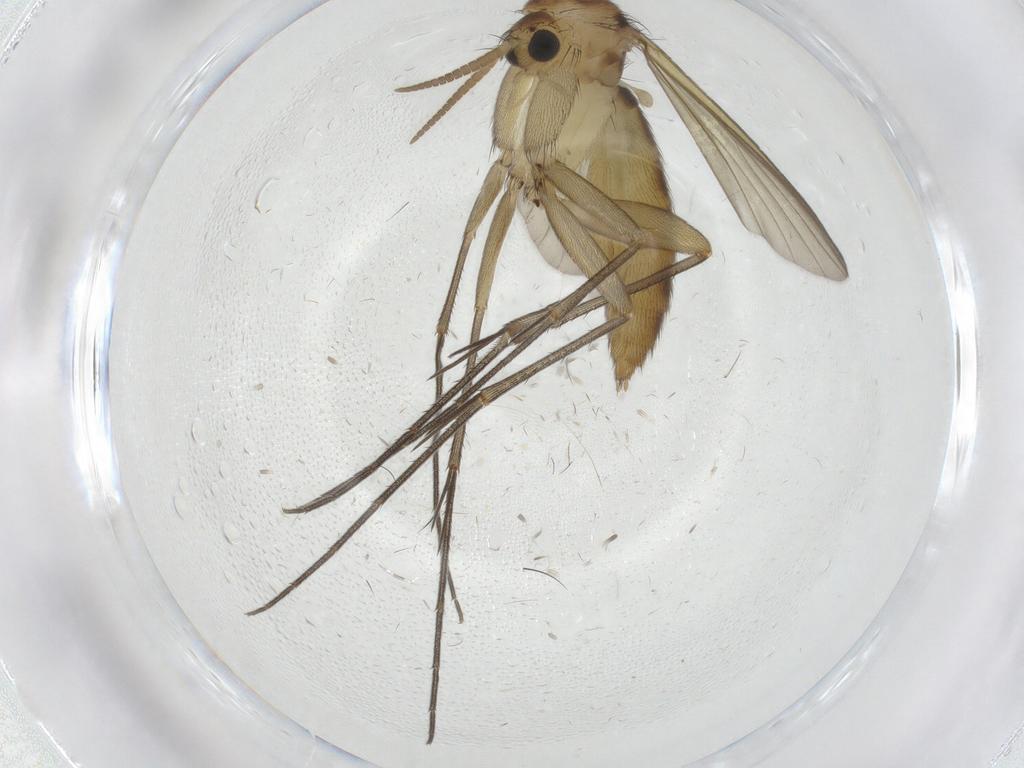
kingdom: Animalia
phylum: Arthropoda
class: Insecta
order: Diptera
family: Mycetophilidae
